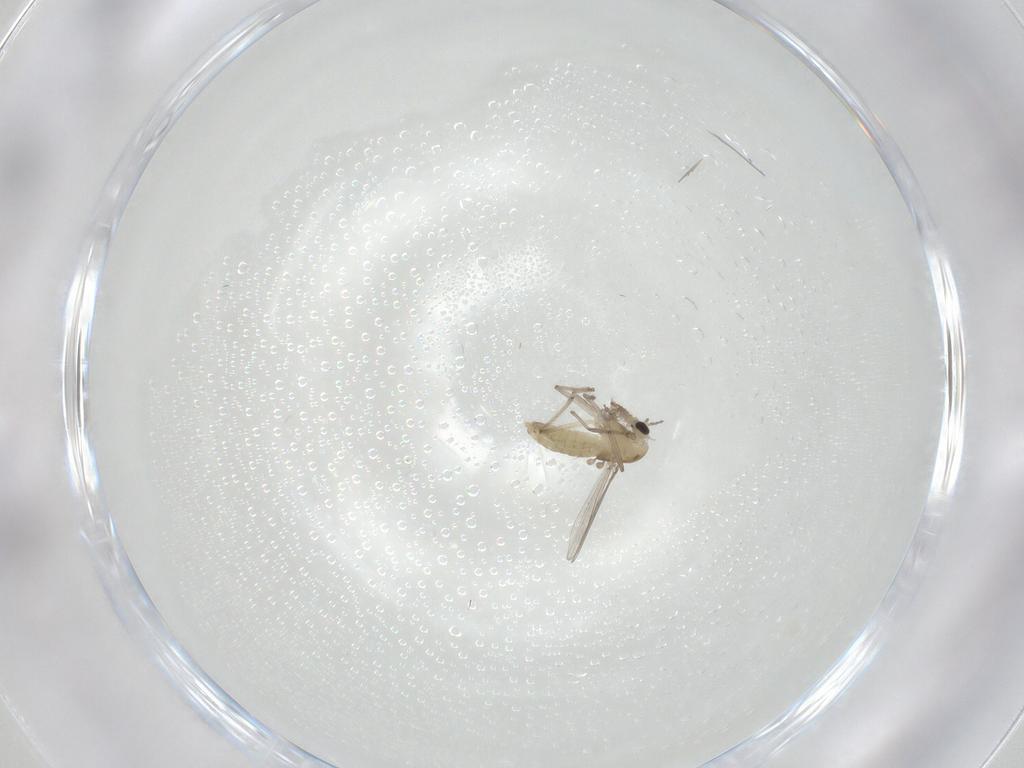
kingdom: Animalia
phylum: Arthropoda
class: Insecta
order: Diptera
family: Chironomidae
